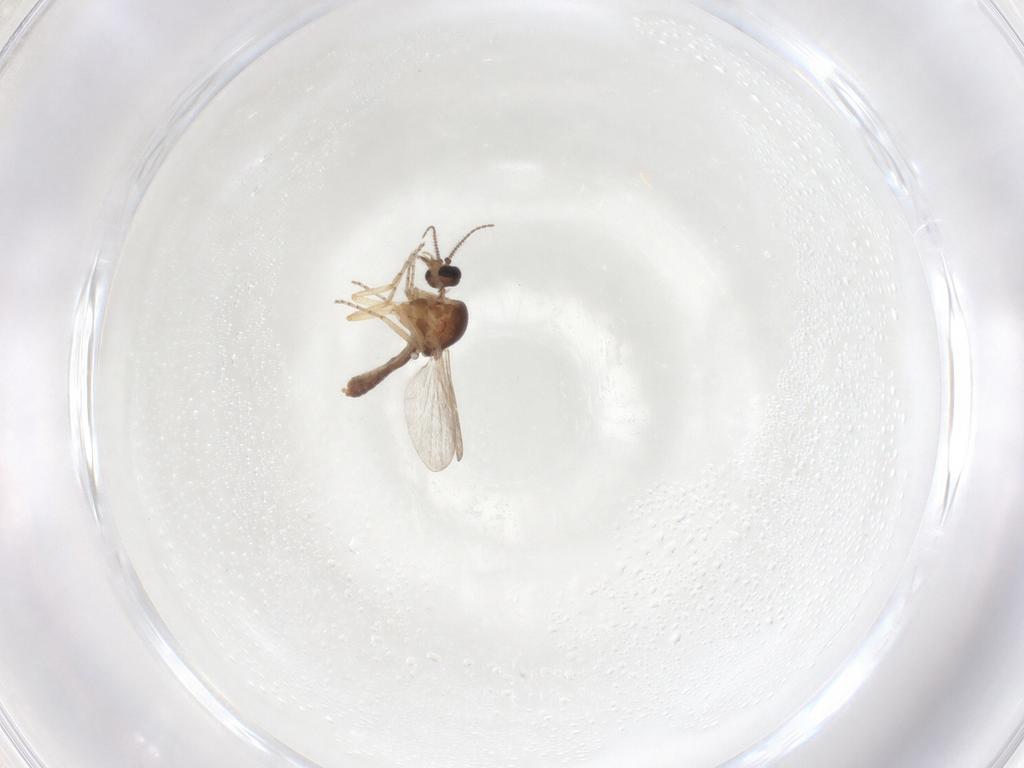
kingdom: Animalia
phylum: Arthropoda
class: Insecta
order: Diptera
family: Ceratopogonidae
